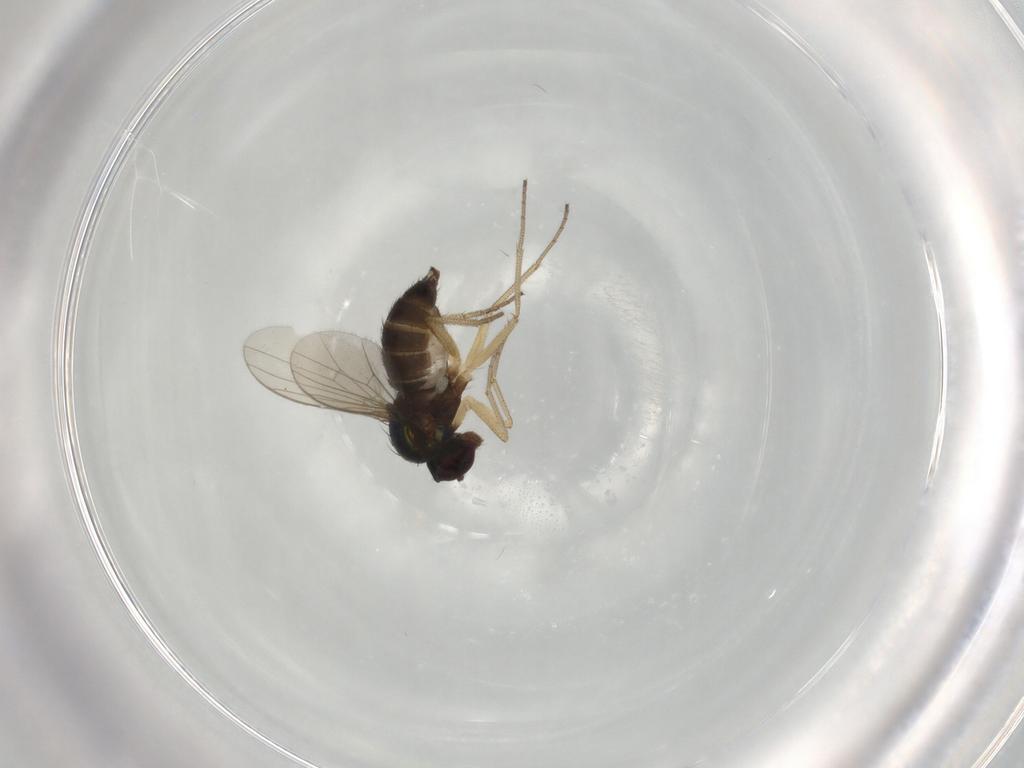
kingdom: Animalia
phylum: Arthropoda
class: Insecta
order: Diptera
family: Dolichopodidae
